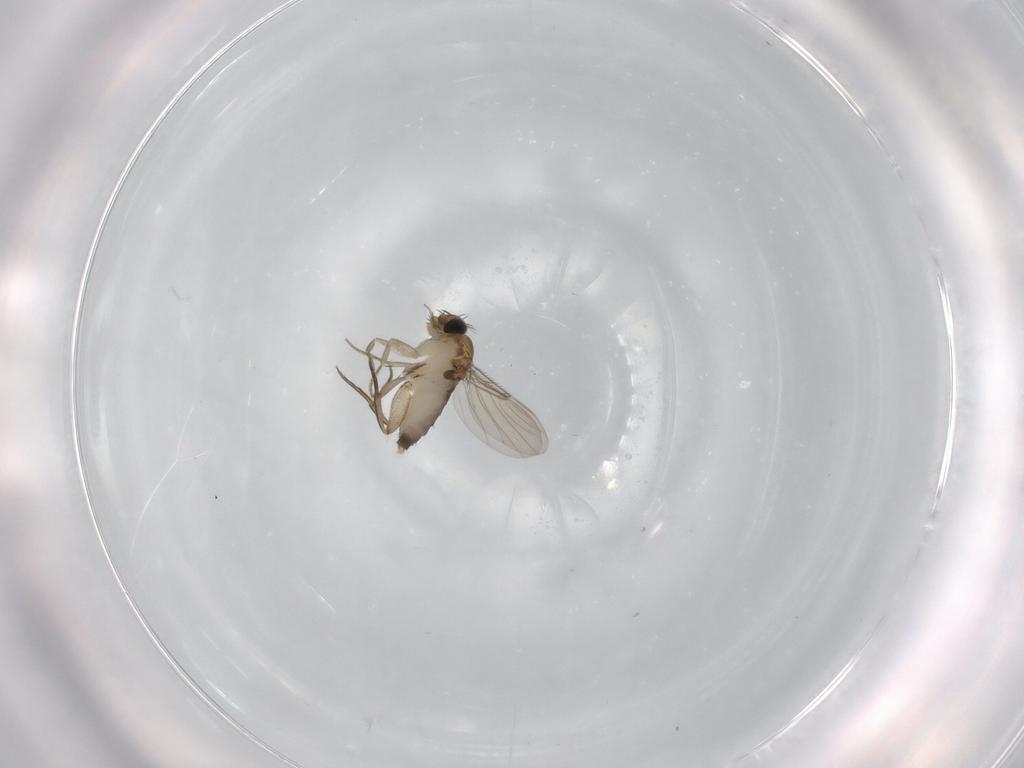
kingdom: Animalia
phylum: Arthropoda
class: Insecta
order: Diptera
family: Phoridae
